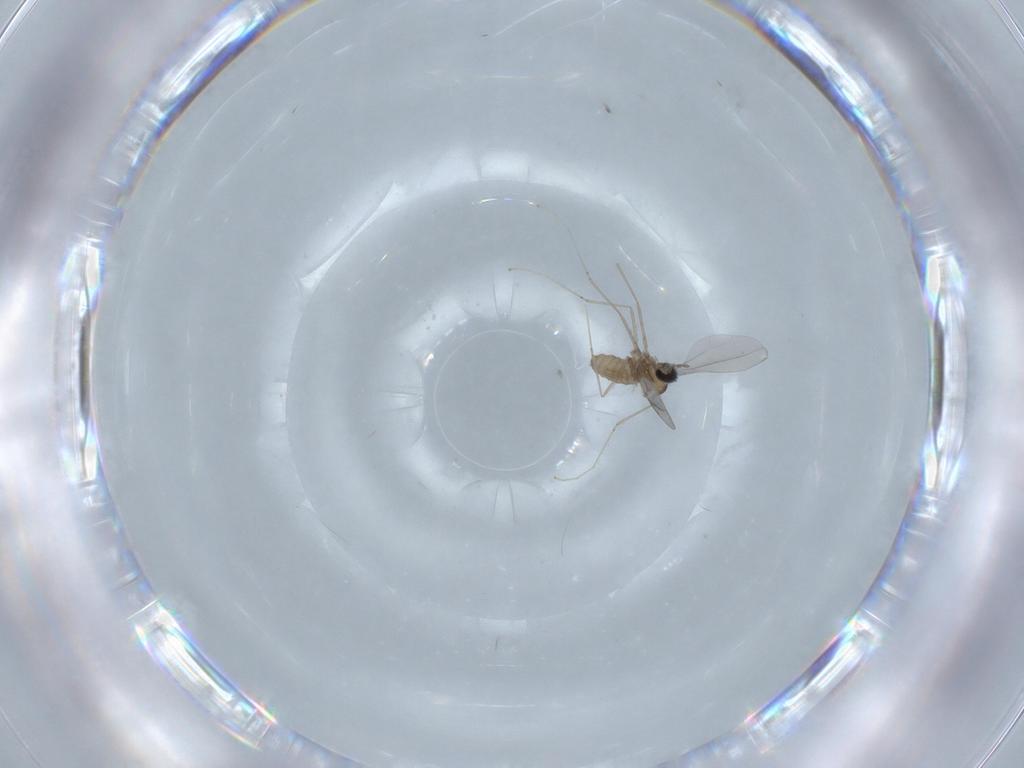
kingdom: Animalia
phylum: Arthropoda
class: Insecta
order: Diptera
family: Cecidomyiidae
